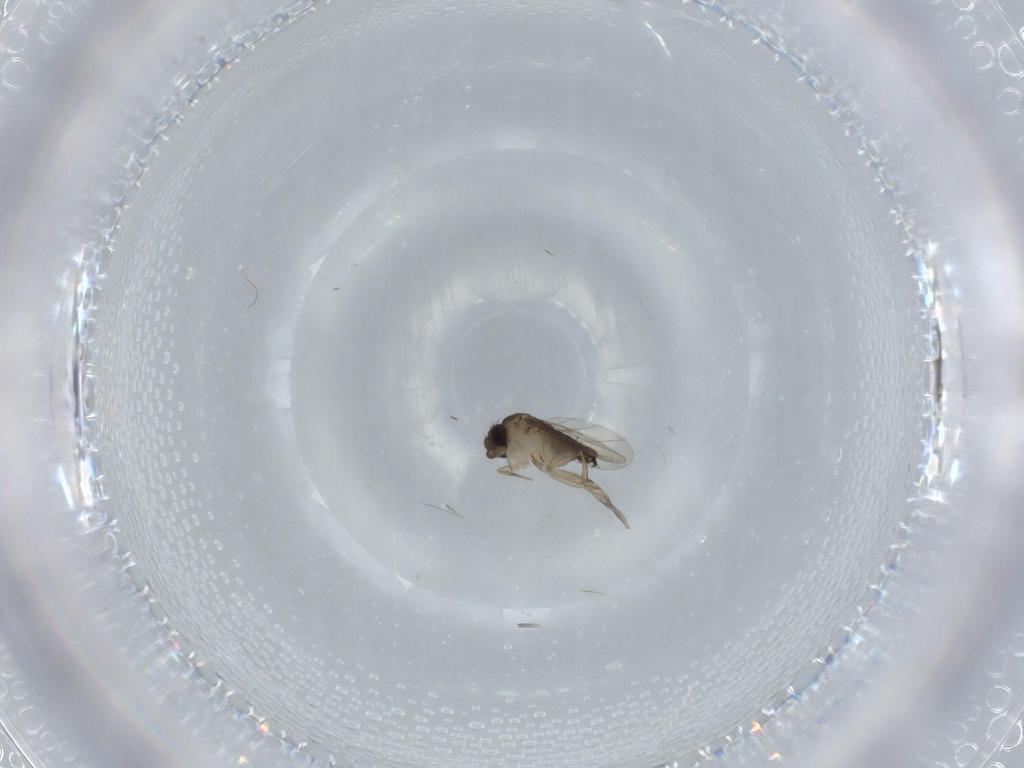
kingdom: Animalia
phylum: Arthropoda
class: Insecta
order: Diptera
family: Phoridae
